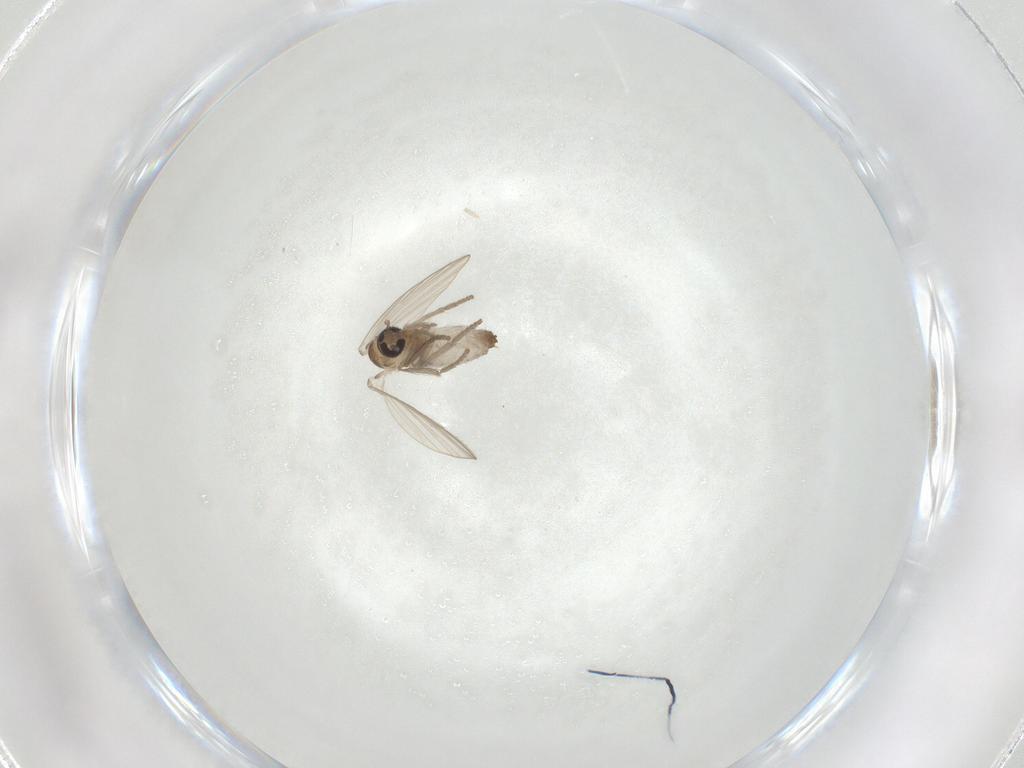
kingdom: Animalia
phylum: Arthropoda
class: Insecta
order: Diptera
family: Psychodidae
